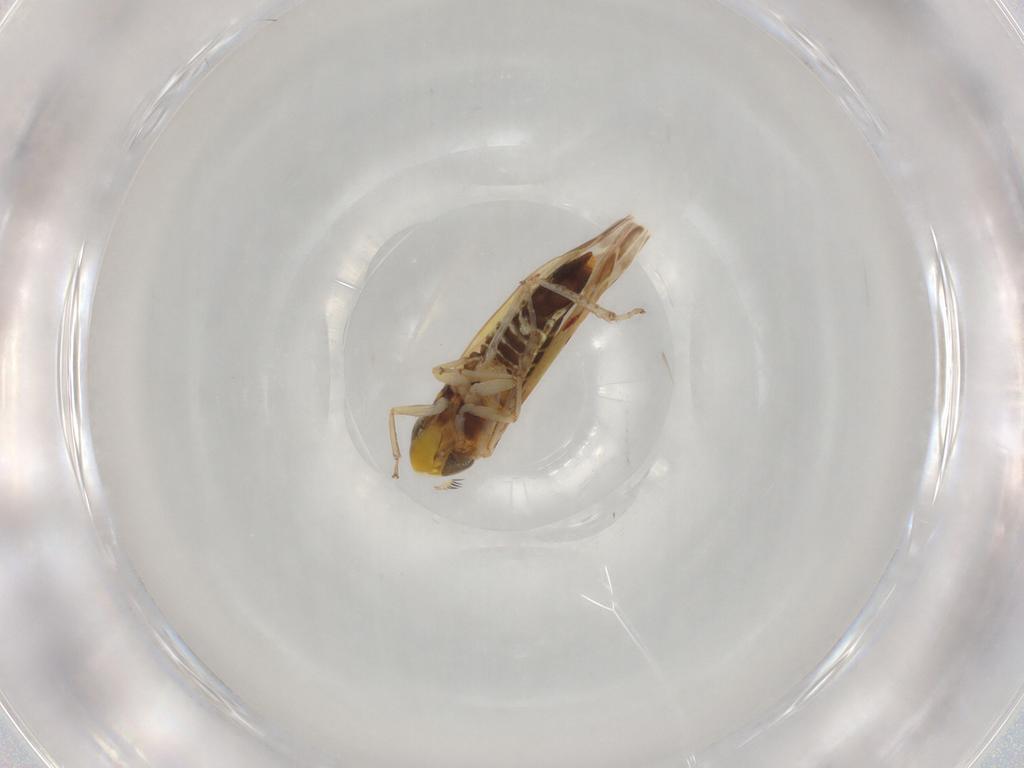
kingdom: Animalia
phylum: Arthropoda
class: Insecta
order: Hemiptera
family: Cicadellidae
